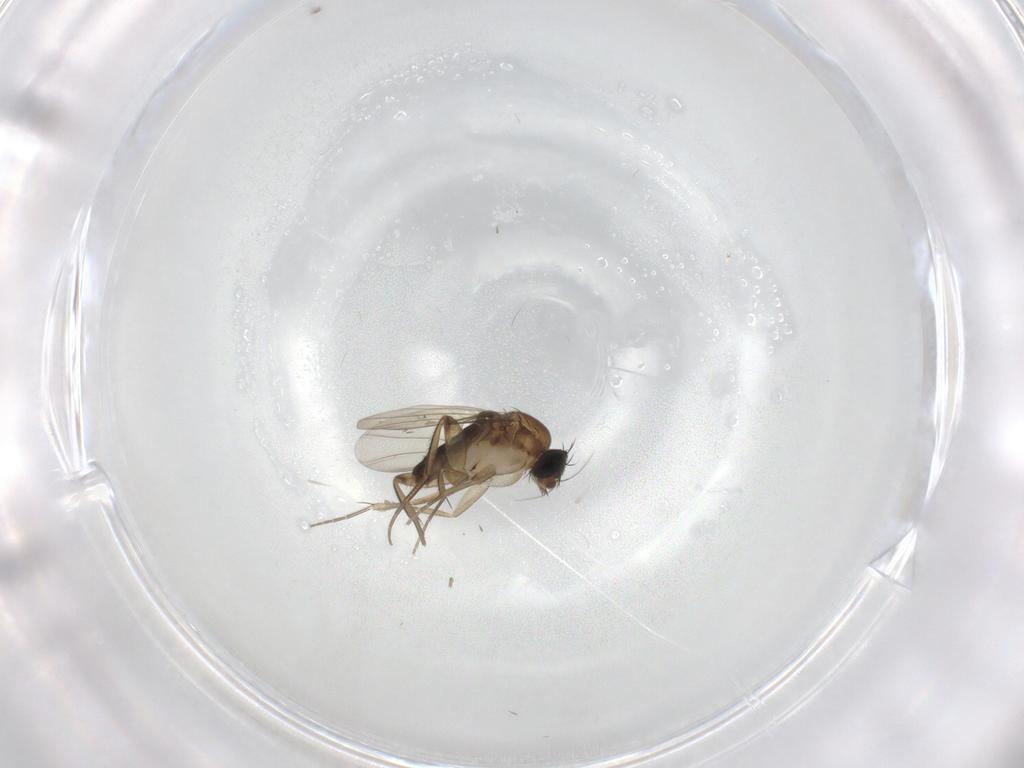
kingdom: Animalia
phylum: Arthropoda
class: Insecta
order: Diptera
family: Phoridae
